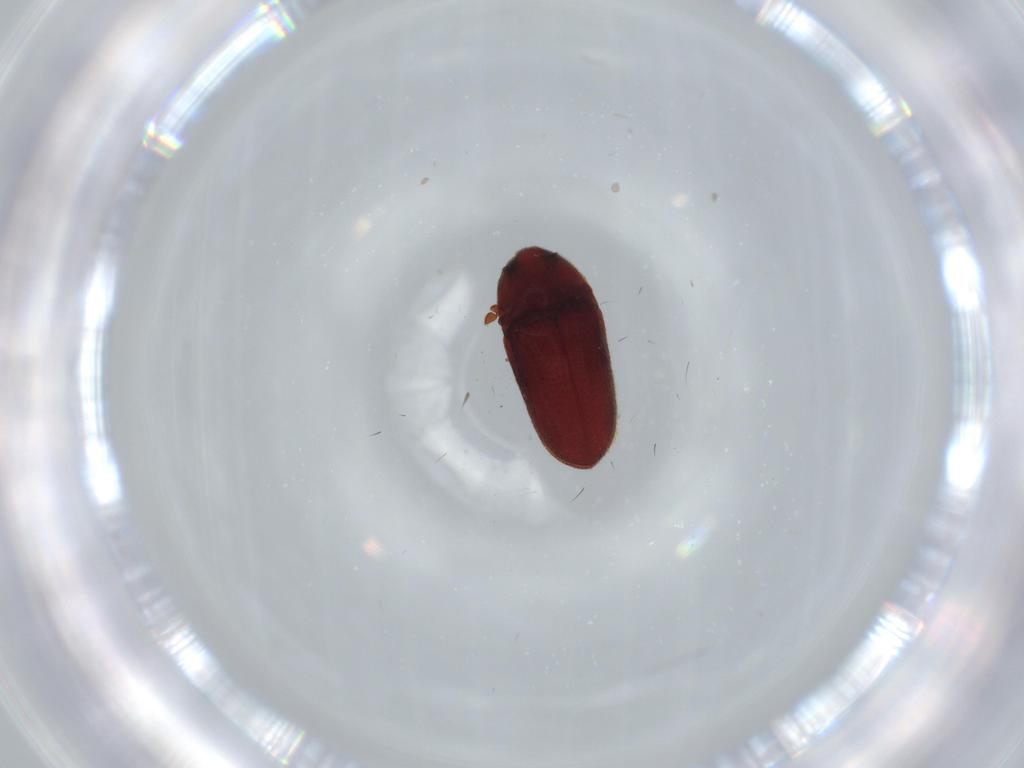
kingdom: Animalia
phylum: Arthropoda
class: Insecta
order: Coleoptera
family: Throscidae
